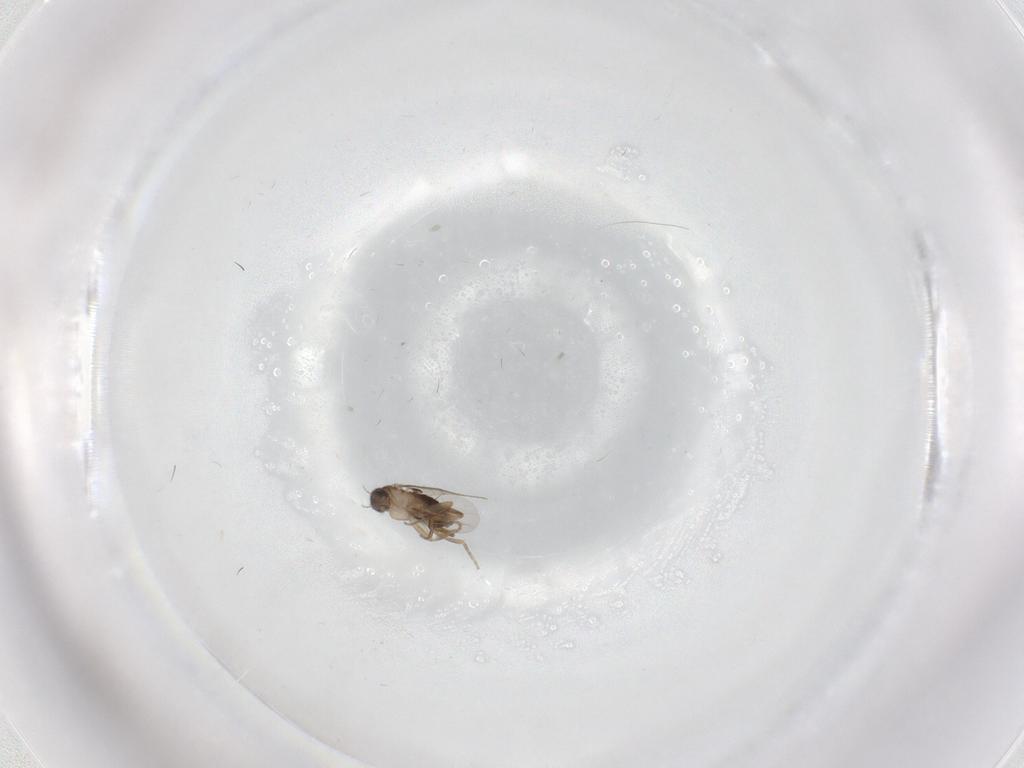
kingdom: Animalia
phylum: Arthropoda
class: Insecta
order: Diptera
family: Phoridae
